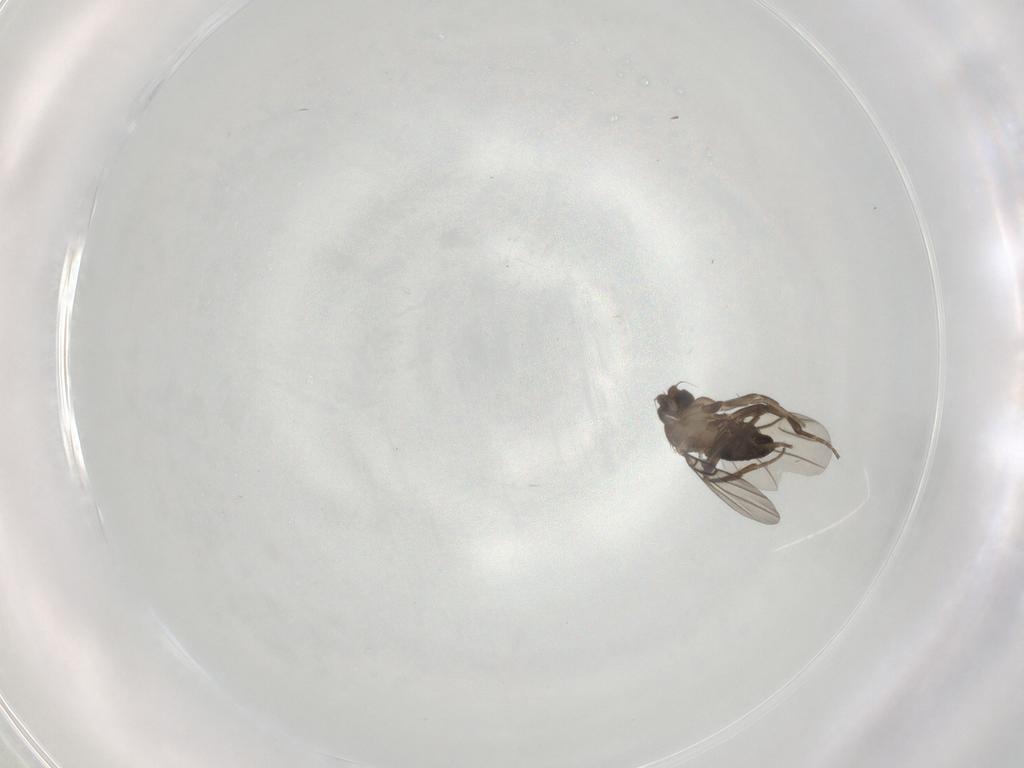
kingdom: Animalia
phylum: Arthropoda
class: Insecta
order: Diptera
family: Phoridae
